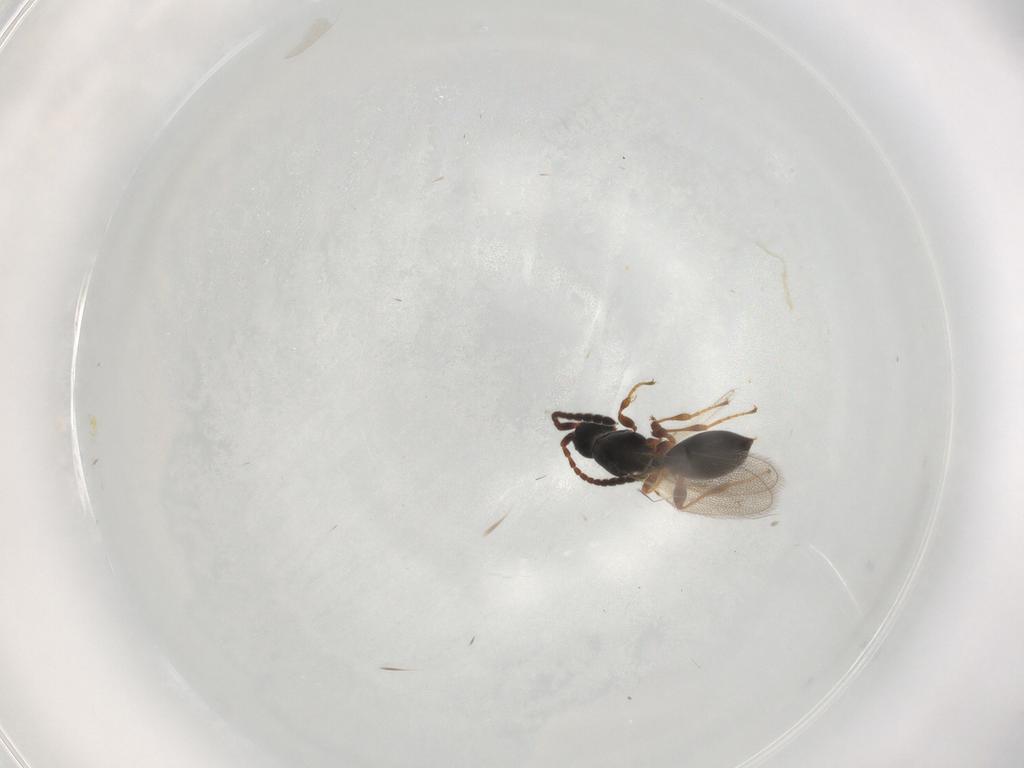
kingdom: Animalia
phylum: Arthropoda
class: Insecta
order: Hymenoptera
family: Diapriidae
